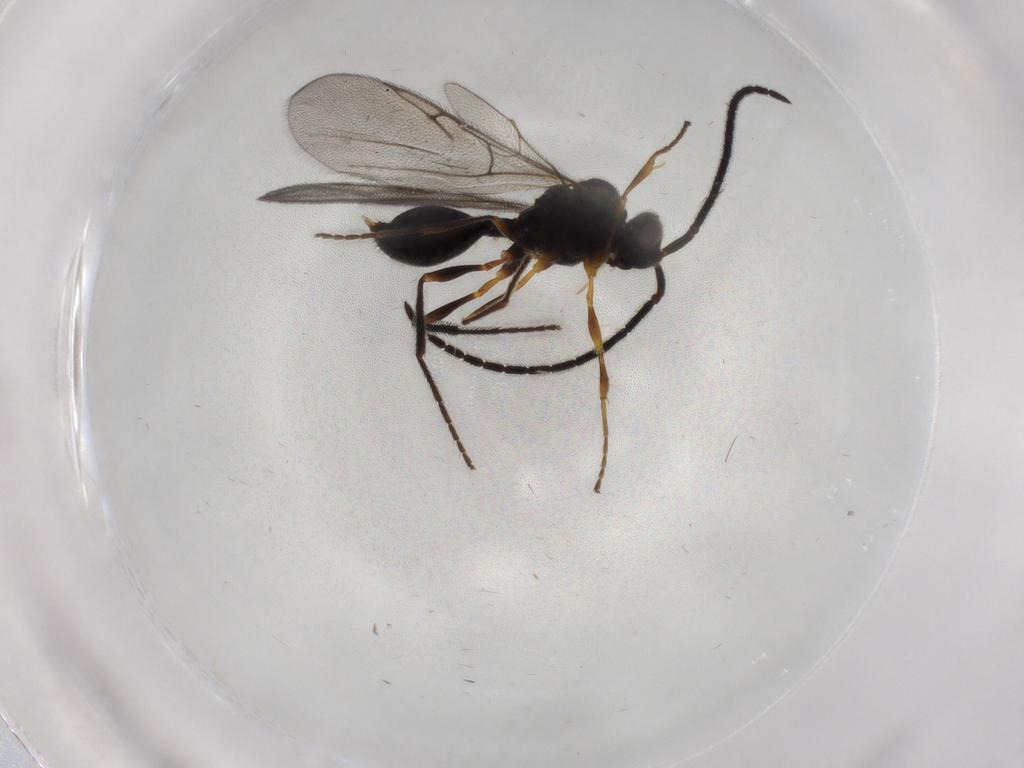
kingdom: Animalia
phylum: Arthropoda
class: Insecta
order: Hymenoptera
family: Diapriidae
